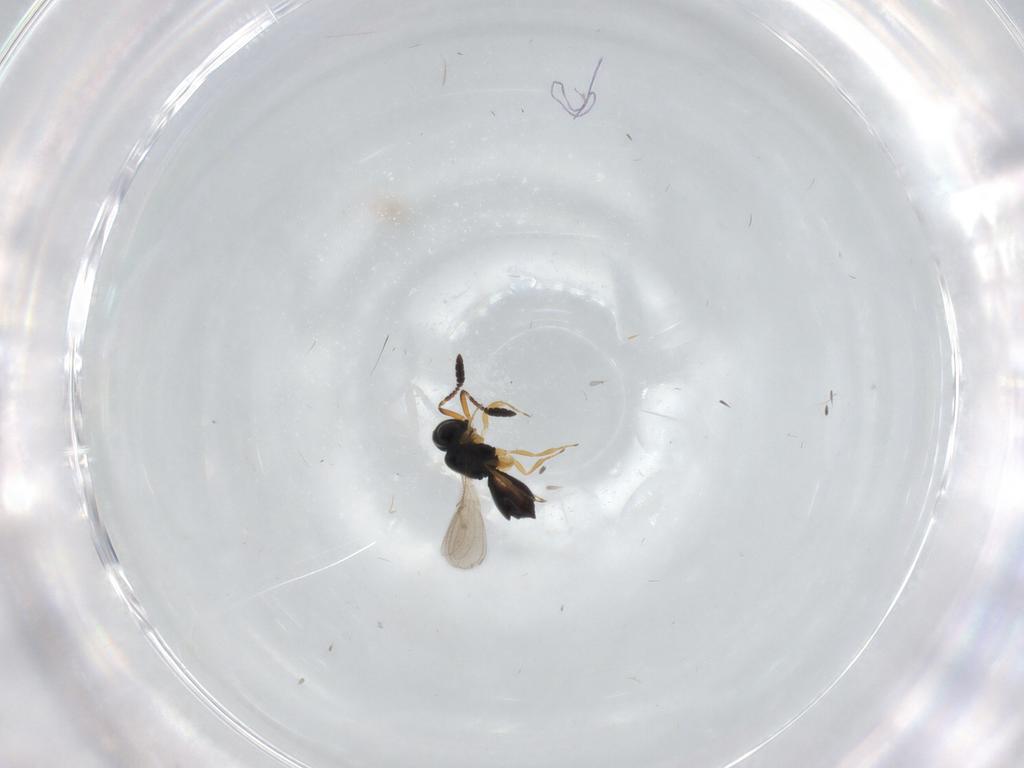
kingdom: Animalia
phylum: Arthropoda
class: Insecta
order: Hymenoptera
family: Scelionidae
